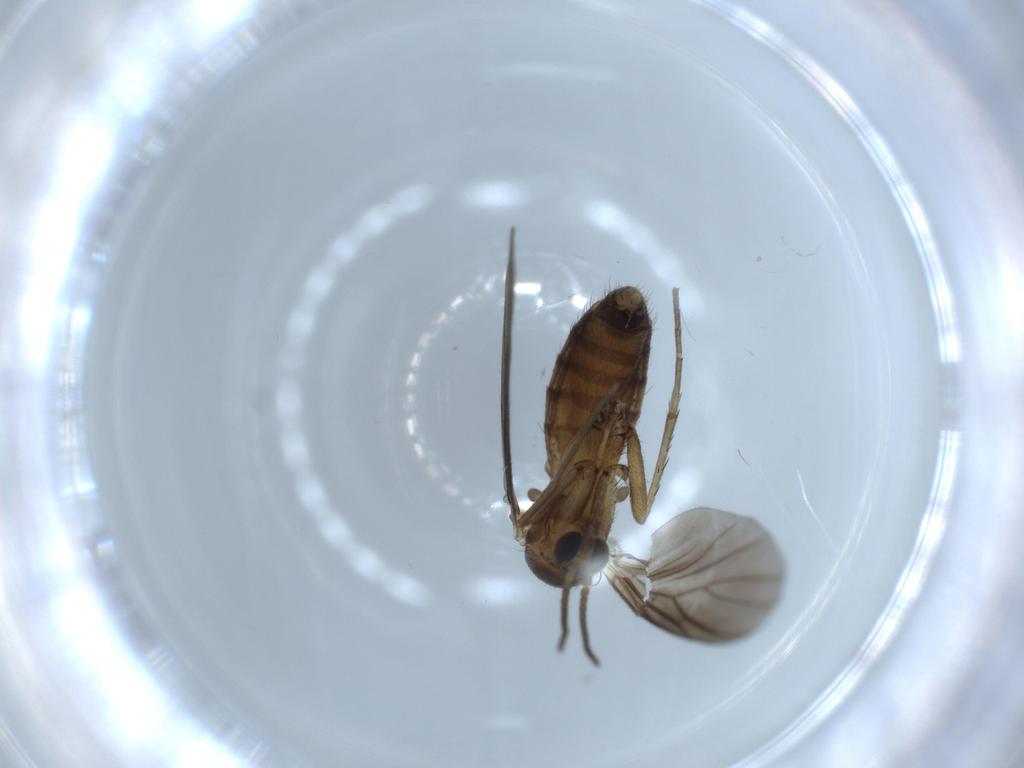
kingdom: Animalia
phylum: Arthropoda
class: Insecta
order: Diptera
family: Mycetophilidae
